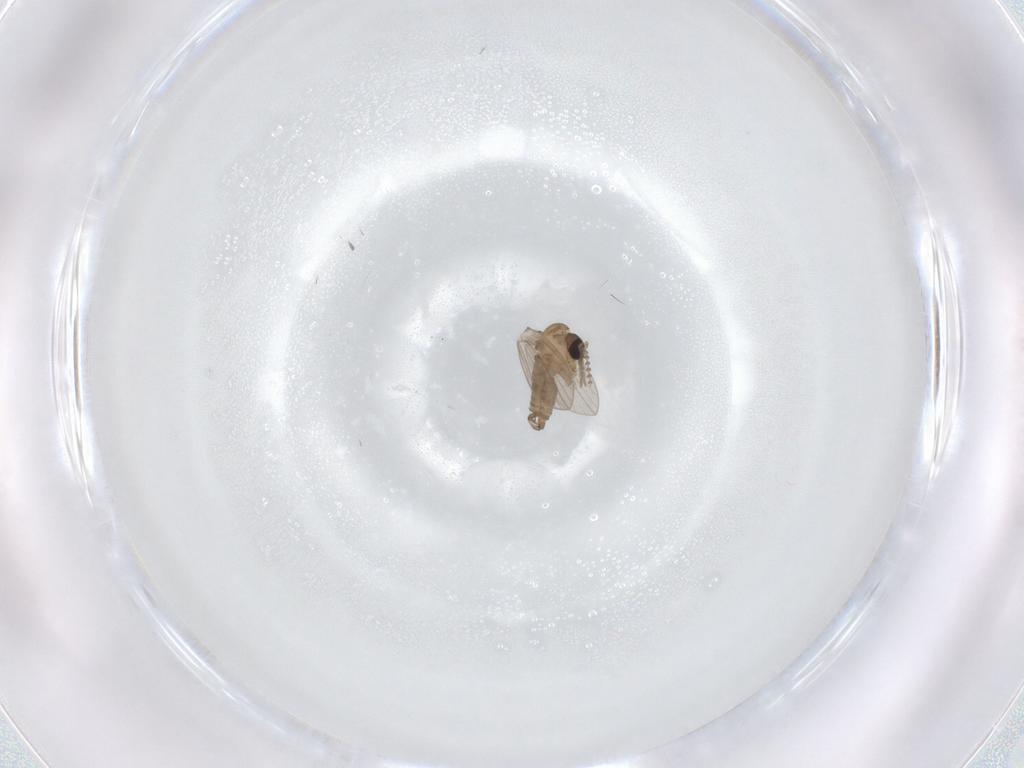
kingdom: Animalia
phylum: Arthropoda
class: Insecta
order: Diptera
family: Psychodidae
